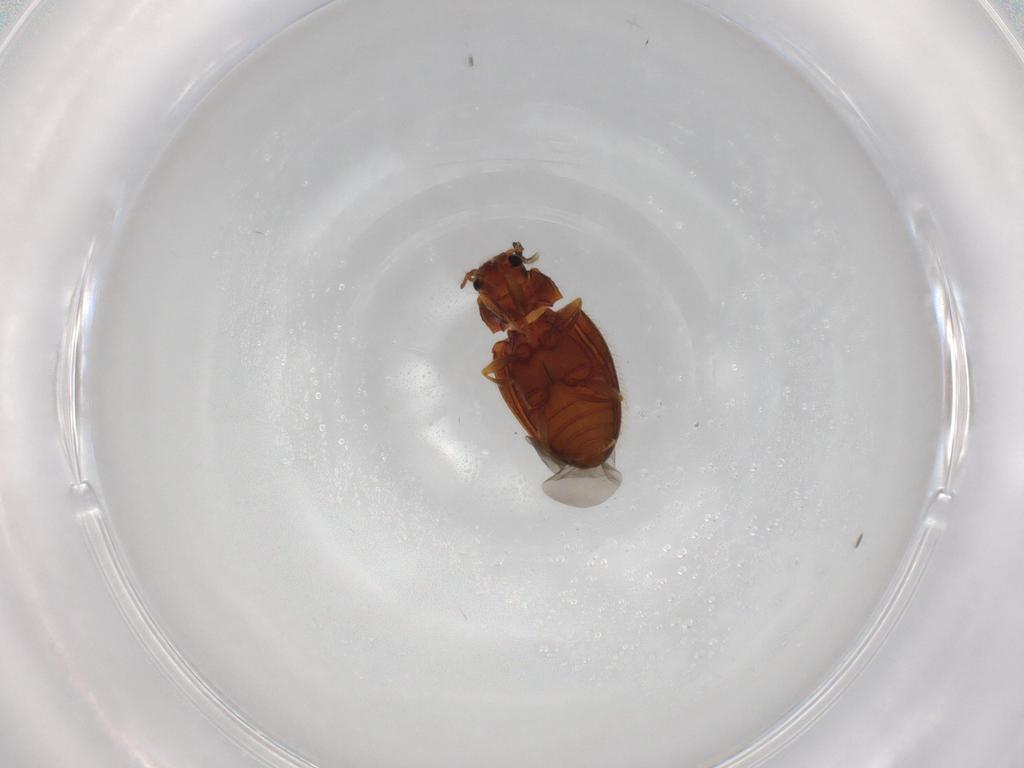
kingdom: Animalia
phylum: Arthropoda
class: Insecta
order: Coleoptera
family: Erotylidae
